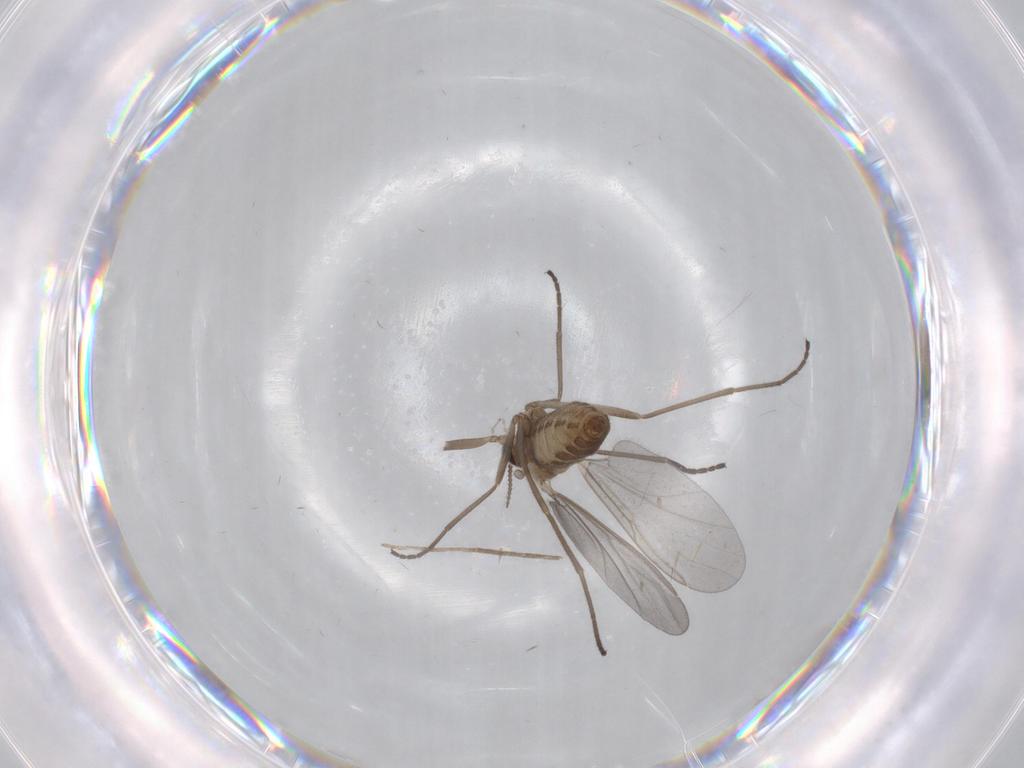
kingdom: Animalia
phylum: Arthropoda
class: Insecta
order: Diptera
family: Cecidomyiidae
